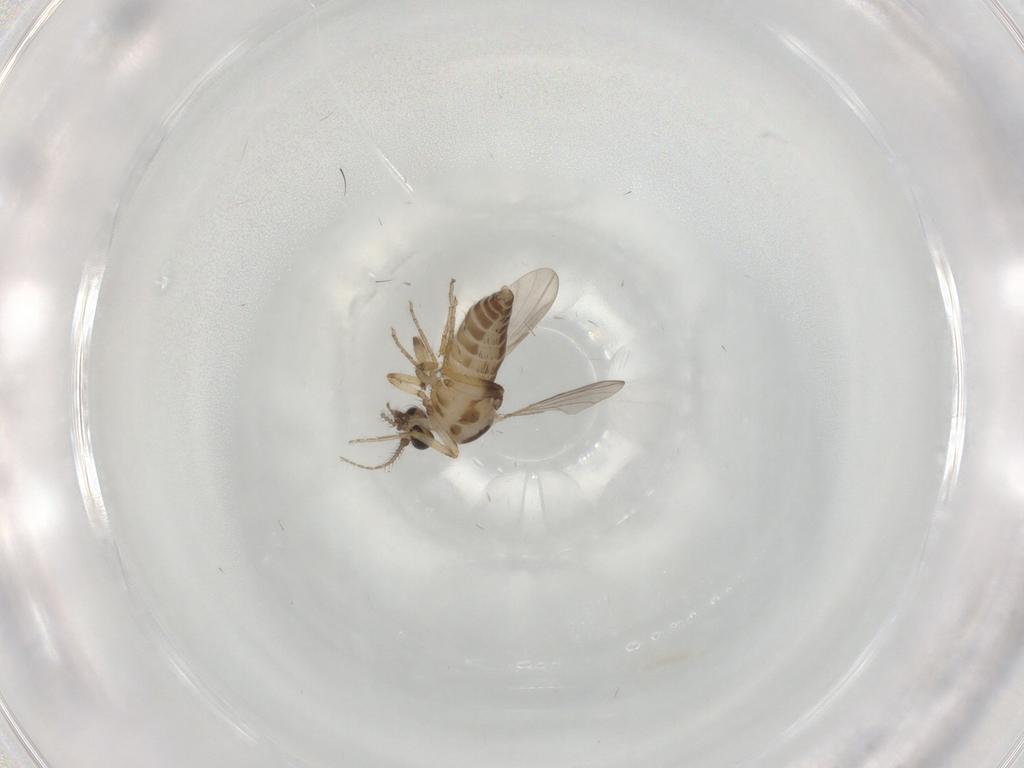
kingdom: Animalia
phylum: Arthropoda
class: Insecta
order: Diptera
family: Ceratopogonidae
